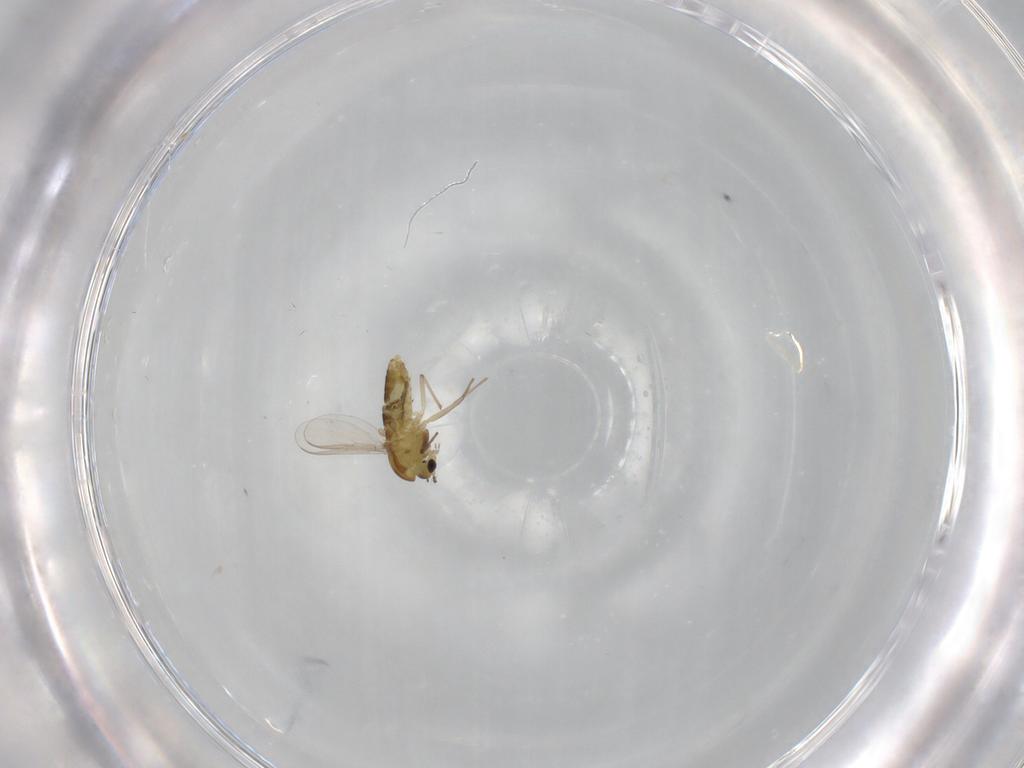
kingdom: Animalia
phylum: Arthropoda
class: Insecta
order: Diptera
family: Chironomidae
